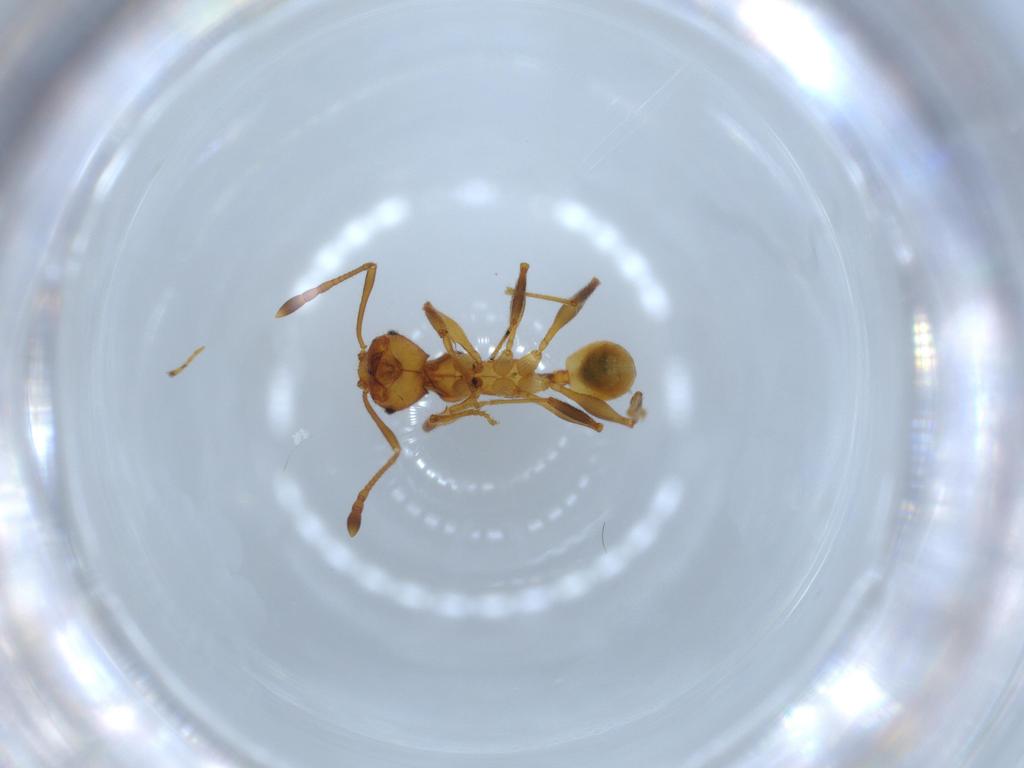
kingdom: Animalia
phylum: Arthropoda
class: Insecta
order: Hymenoptera
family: Formicidae
